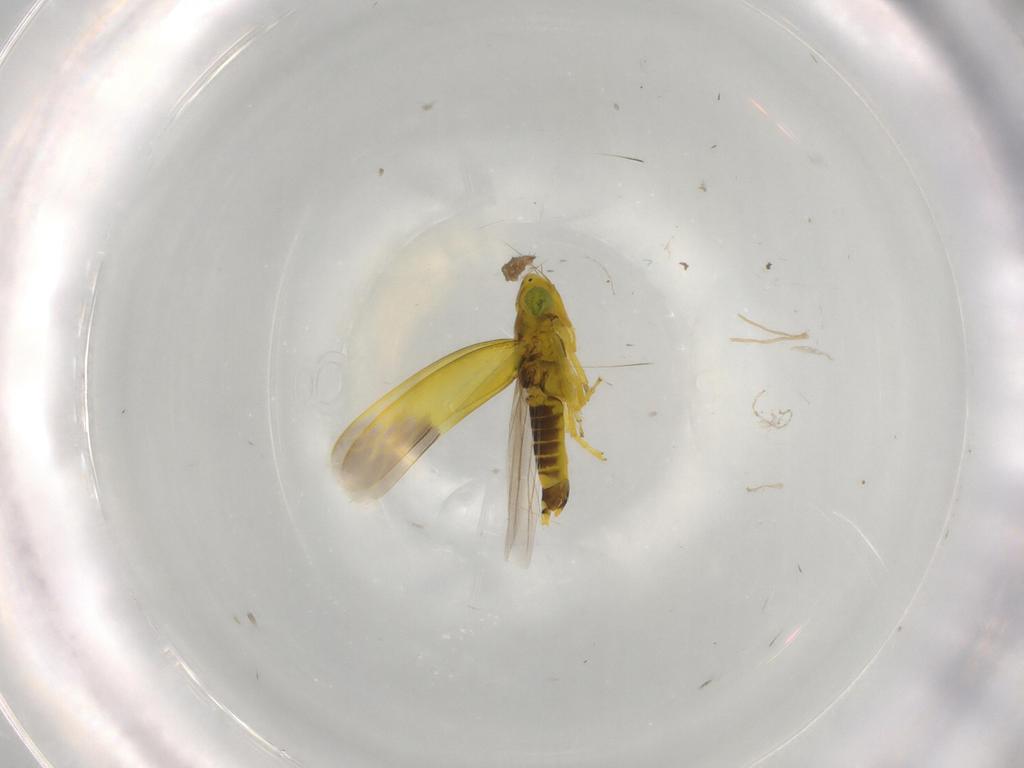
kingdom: Animalia
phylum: Arthropoda
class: Insecta
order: Hemiptera
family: Cicadellidae
